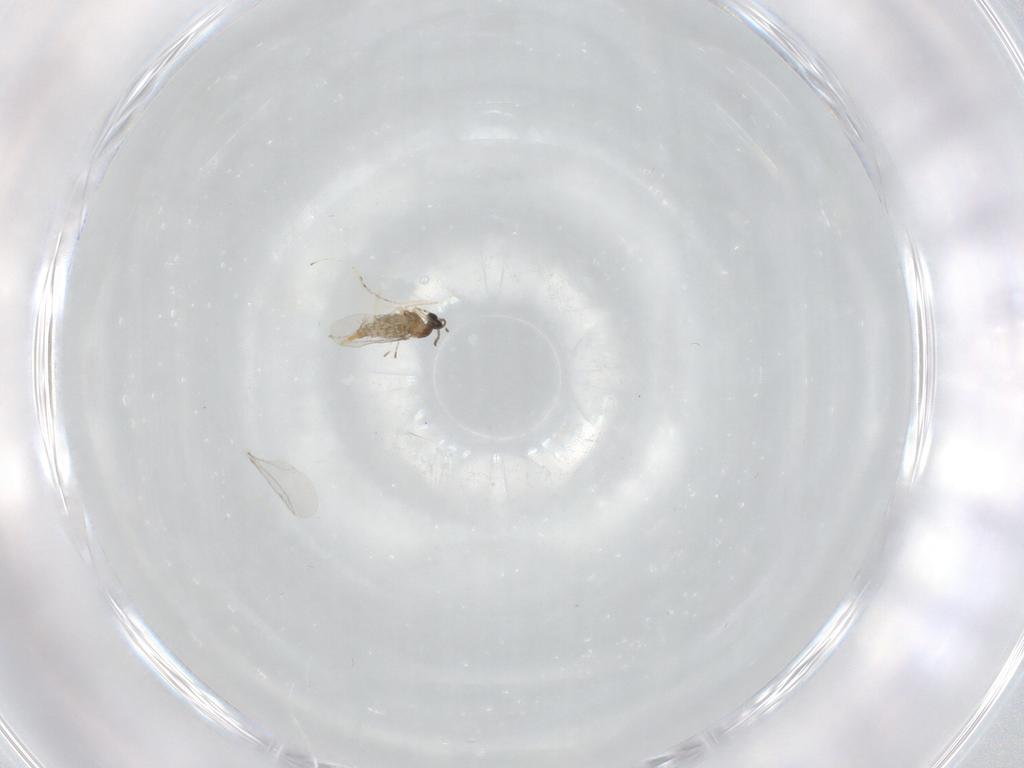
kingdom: Animalia
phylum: Arthropoda
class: Insecta
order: Diptera
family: Cecidomyiidae
